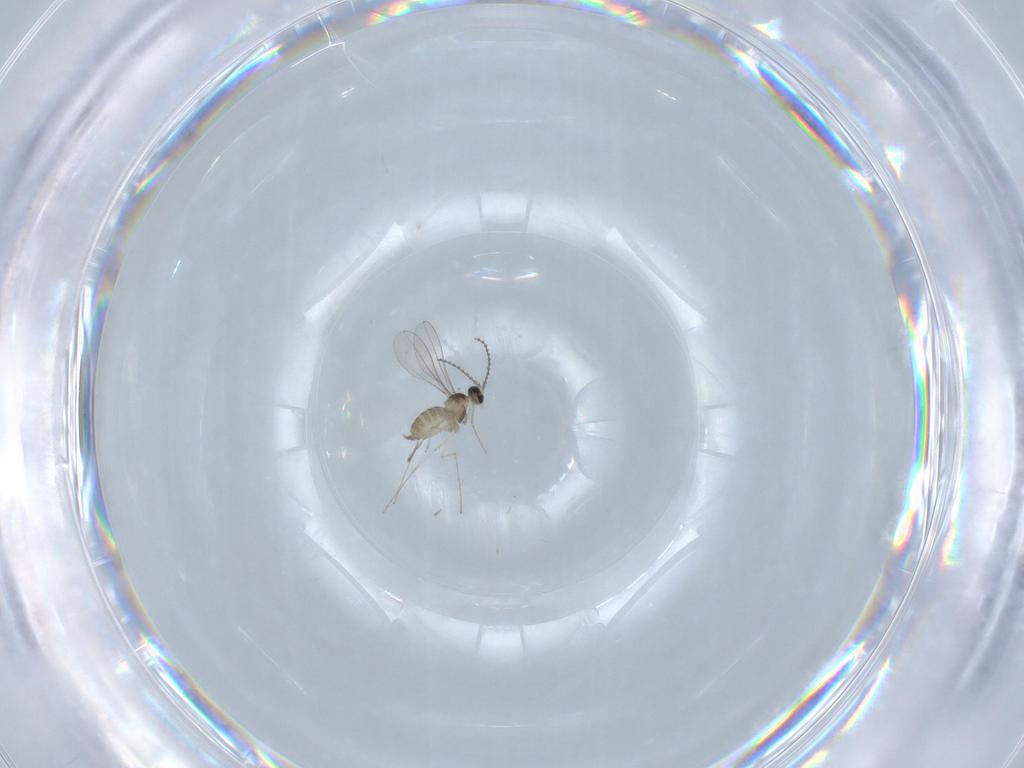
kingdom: Animalia
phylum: Arthropoda
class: Insecta
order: Diptera
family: Cecidomyiidae
